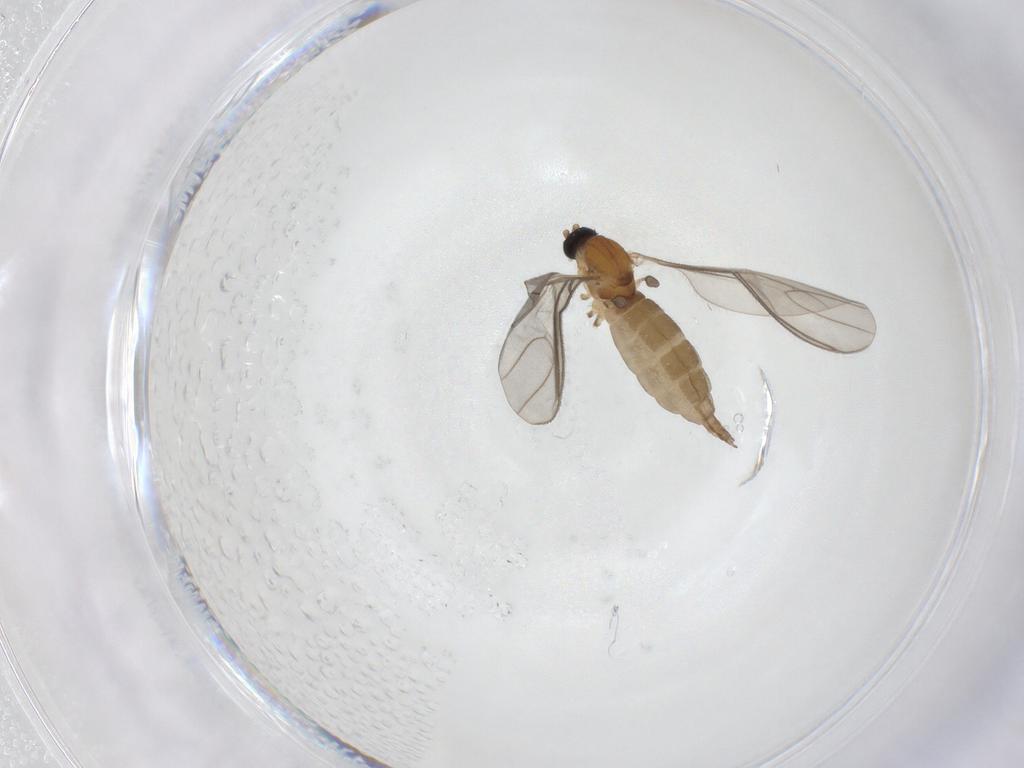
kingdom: Animalia
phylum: Arthropoda
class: Insecta
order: Diptera
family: Sciaridae
